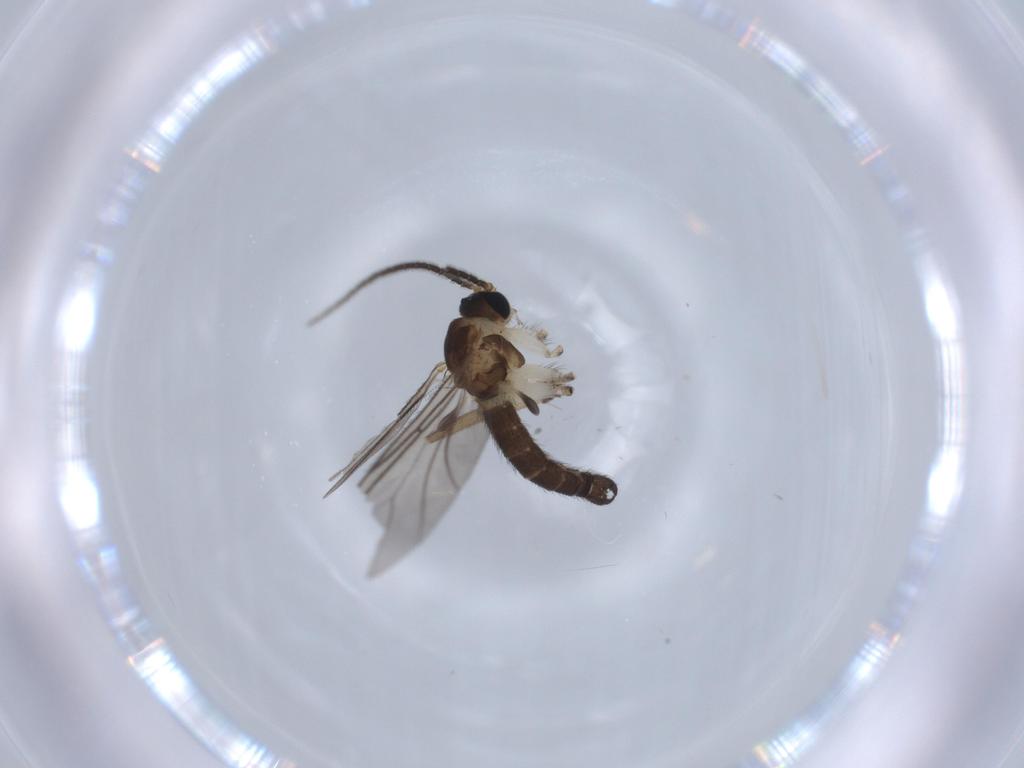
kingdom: Animalia
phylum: Arthropoda
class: Insecta
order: Diptera
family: Sciaridae
